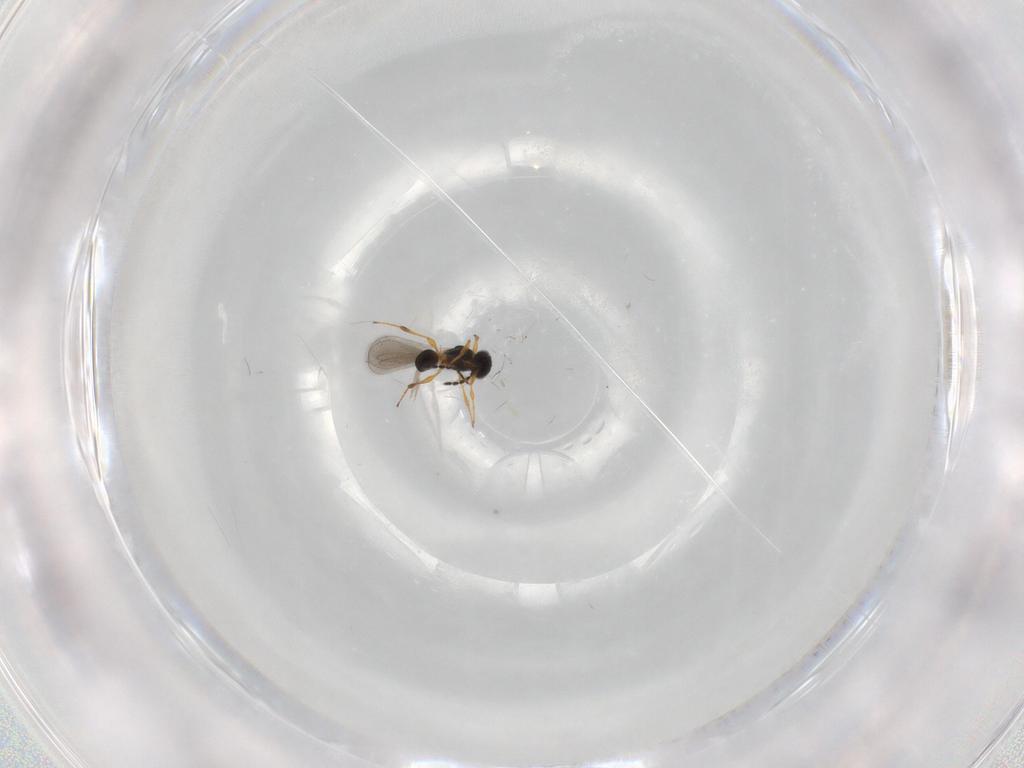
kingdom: Animalia
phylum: Arthropoda
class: Insecta
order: Hymenoptera
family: Platygastridae
